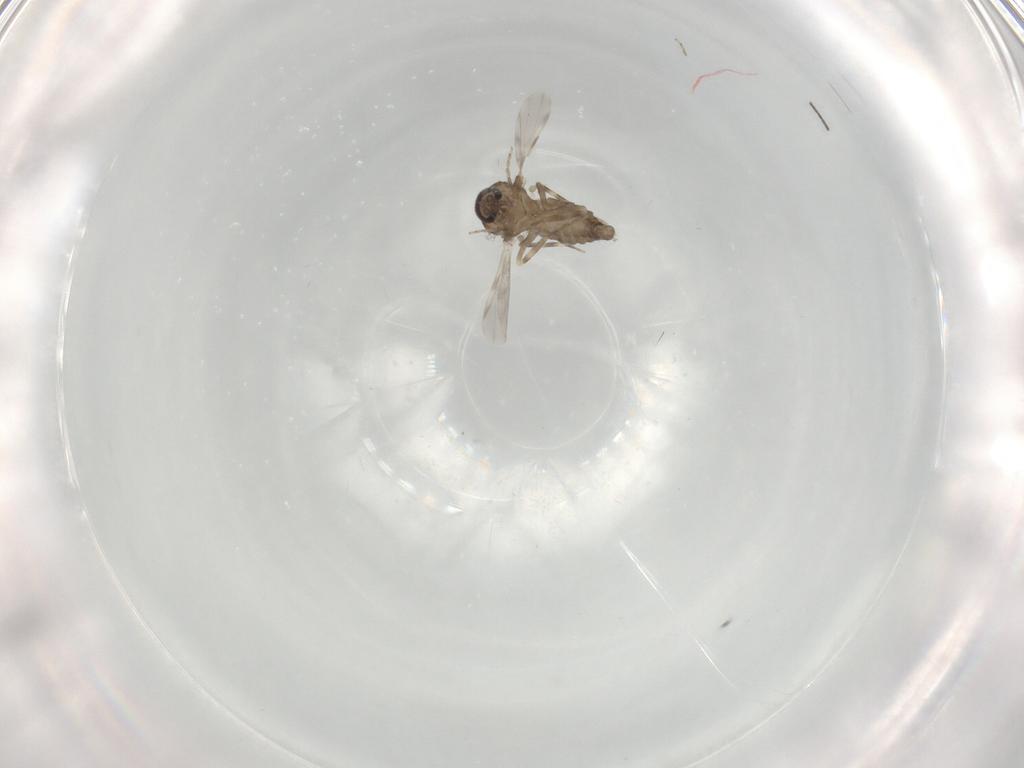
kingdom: Animalia
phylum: Arthropoda
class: Insecta
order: Diptera
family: Ceratopogonidae
